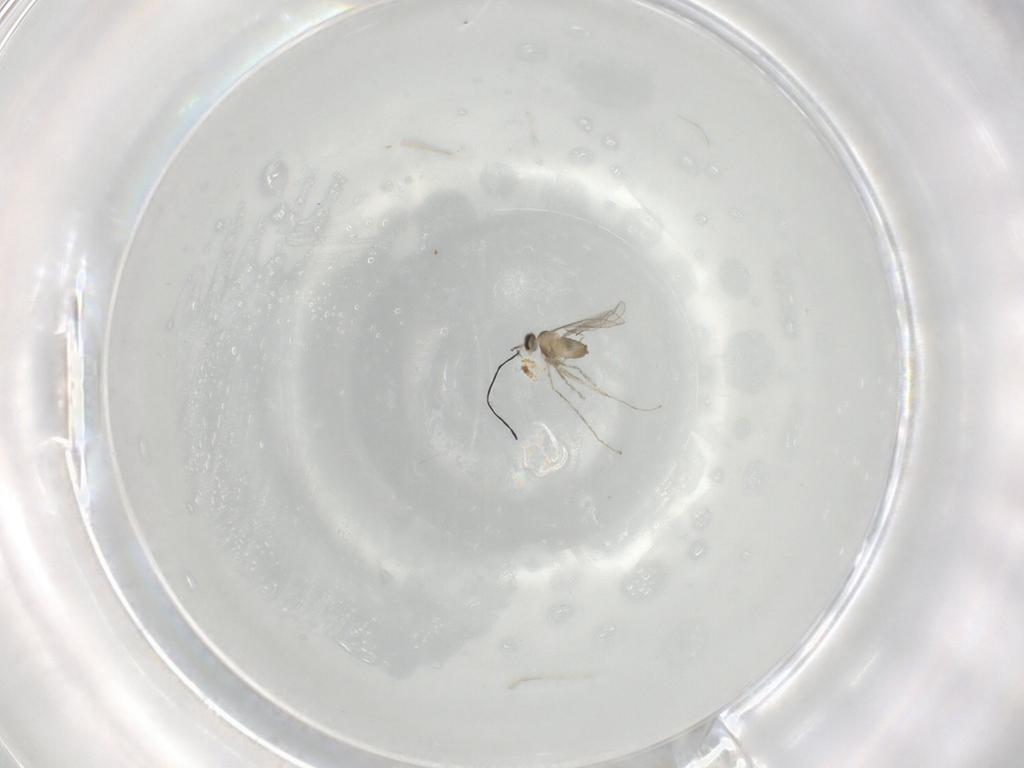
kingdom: Animalia
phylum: Arthropoda
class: Insecta
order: Diptera
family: Cecidomyiidae
